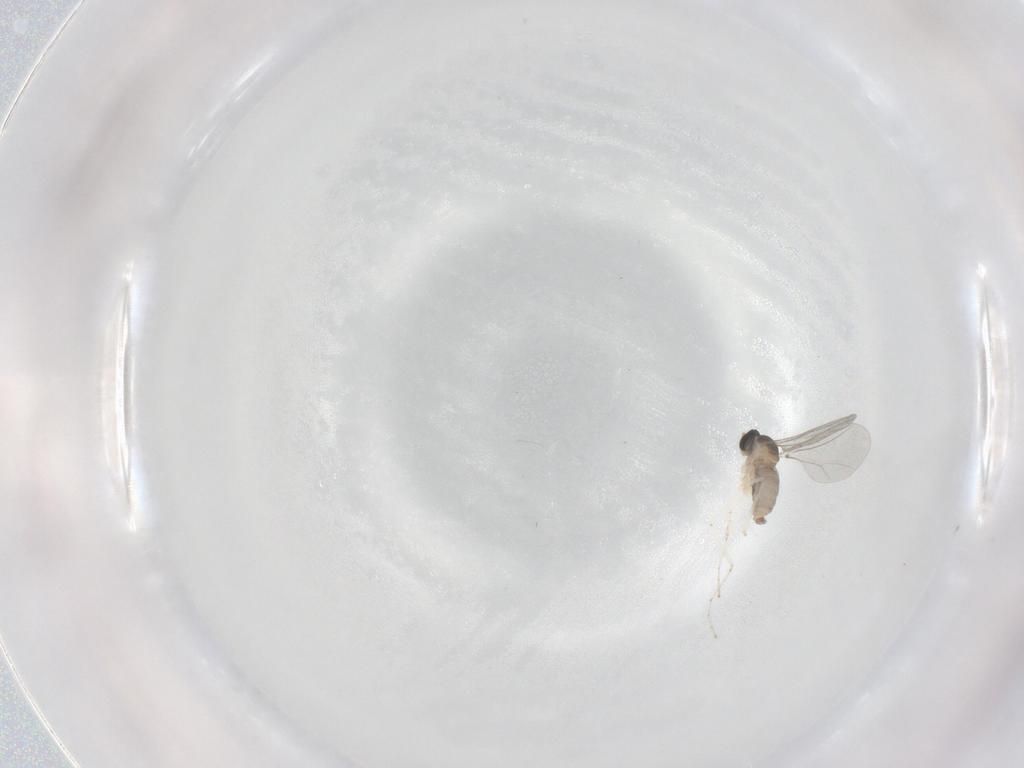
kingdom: Animalia
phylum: Arthropoda
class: Insecta
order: Diptera
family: Cecidomyiidae
